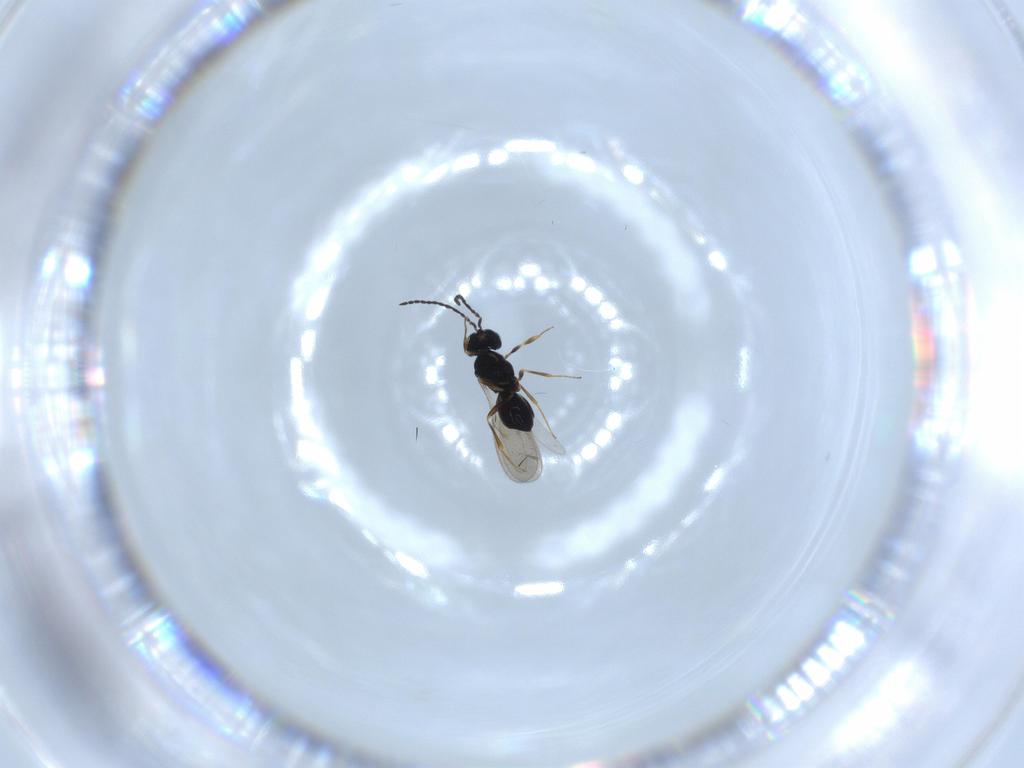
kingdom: Animalia
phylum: Arthropoda
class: Insecta
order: Hymenoptera
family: Scelionidae
